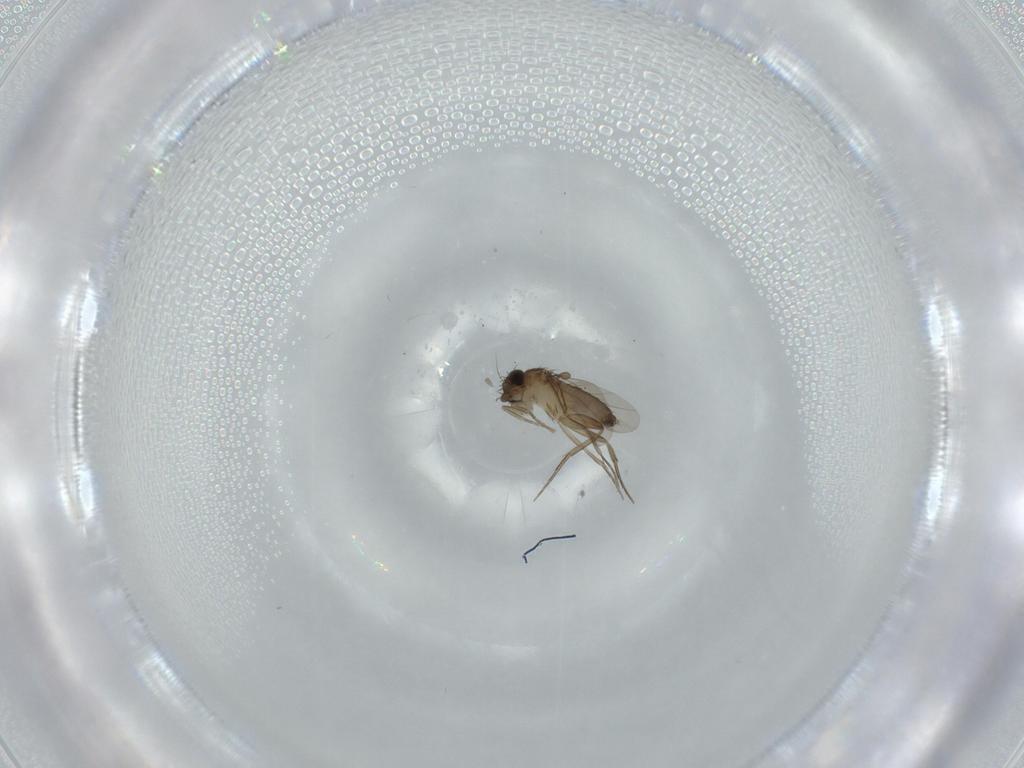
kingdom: Animalia
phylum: Arthropoda
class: Insecta
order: Diptera
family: Phoridae
